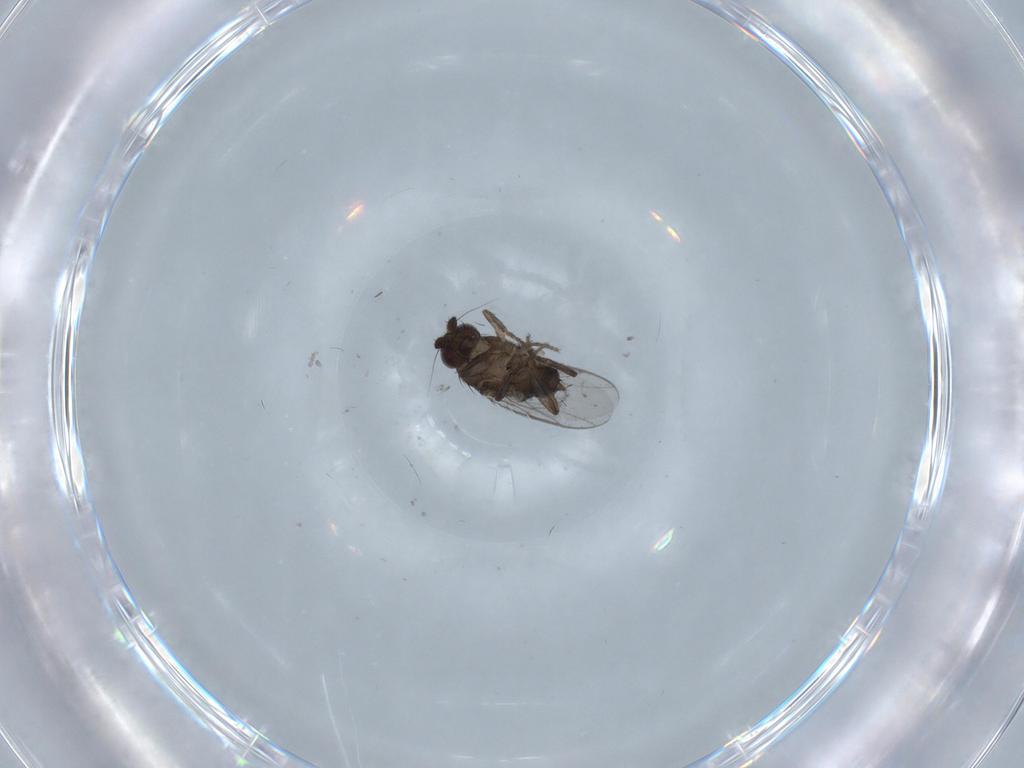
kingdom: Animalia
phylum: Arthropoda
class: Insecta
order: Diptera
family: Sphaeroceridae
